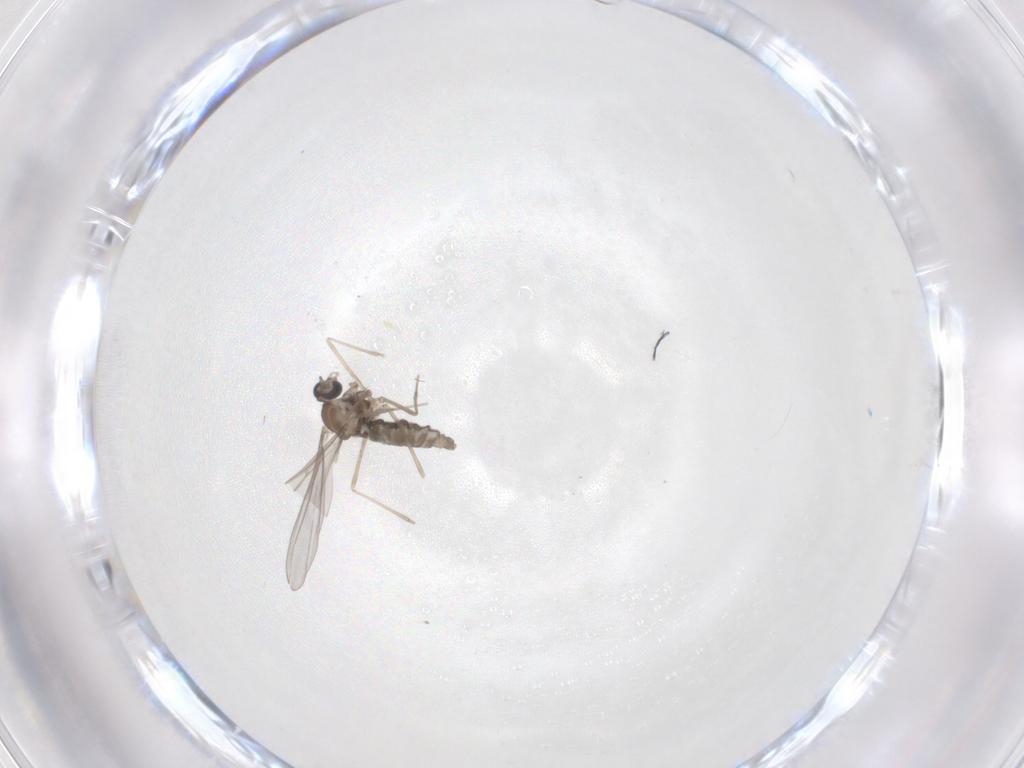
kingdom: Animalia
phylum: Arthropoda
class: Insecta
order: Diptera
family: Cecidomyiidae
